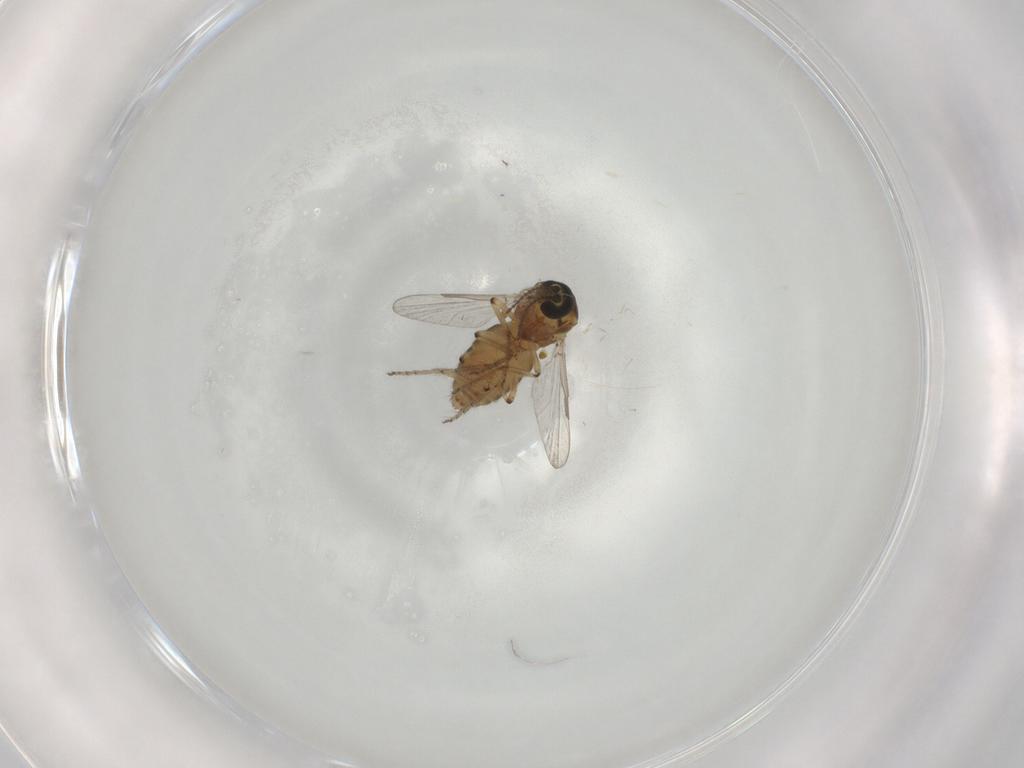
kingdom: Animalia
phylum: Arthropoda
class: Insecta
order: Diptera
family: Ceratopogonidae
